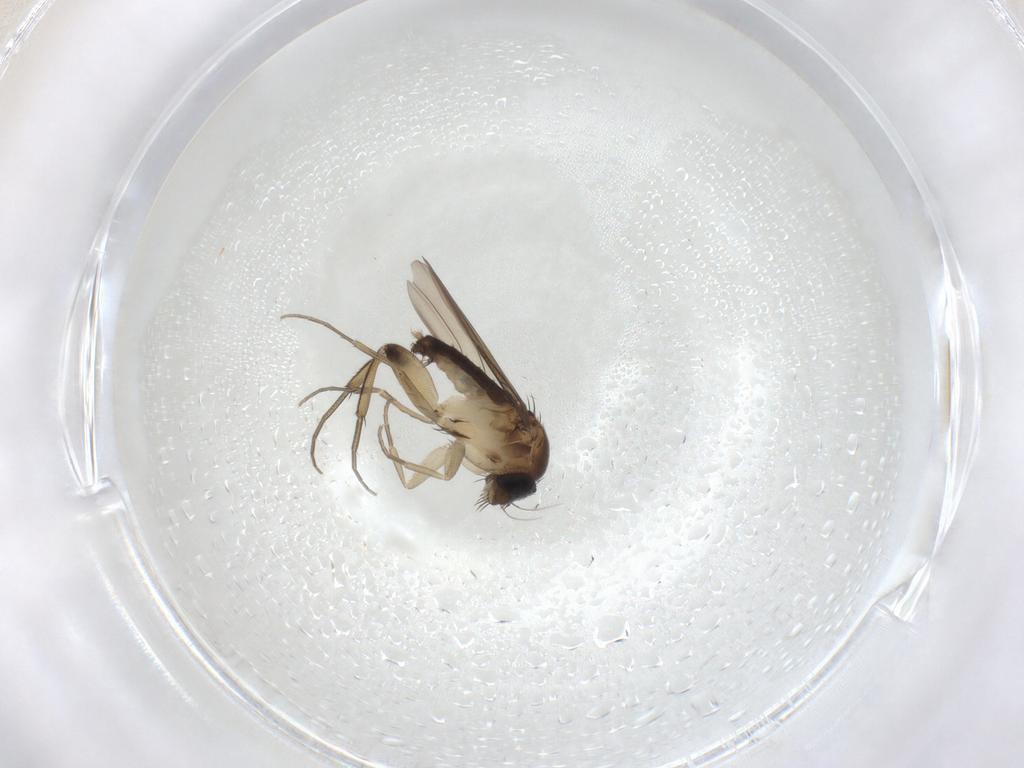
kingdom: Animalia
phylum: Arthropoda
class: Insecta
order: Diptera
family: Phoridae
